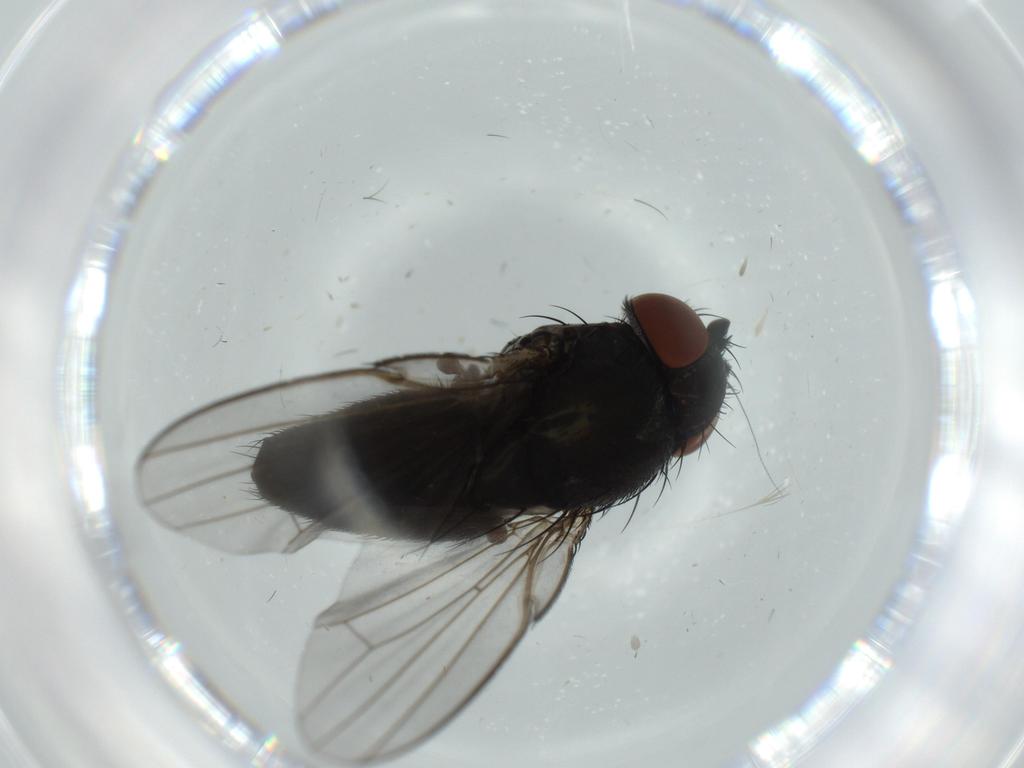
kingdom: Animalia
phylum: Arthropoda
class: Insecta
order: Diptera
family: Milichiidae
